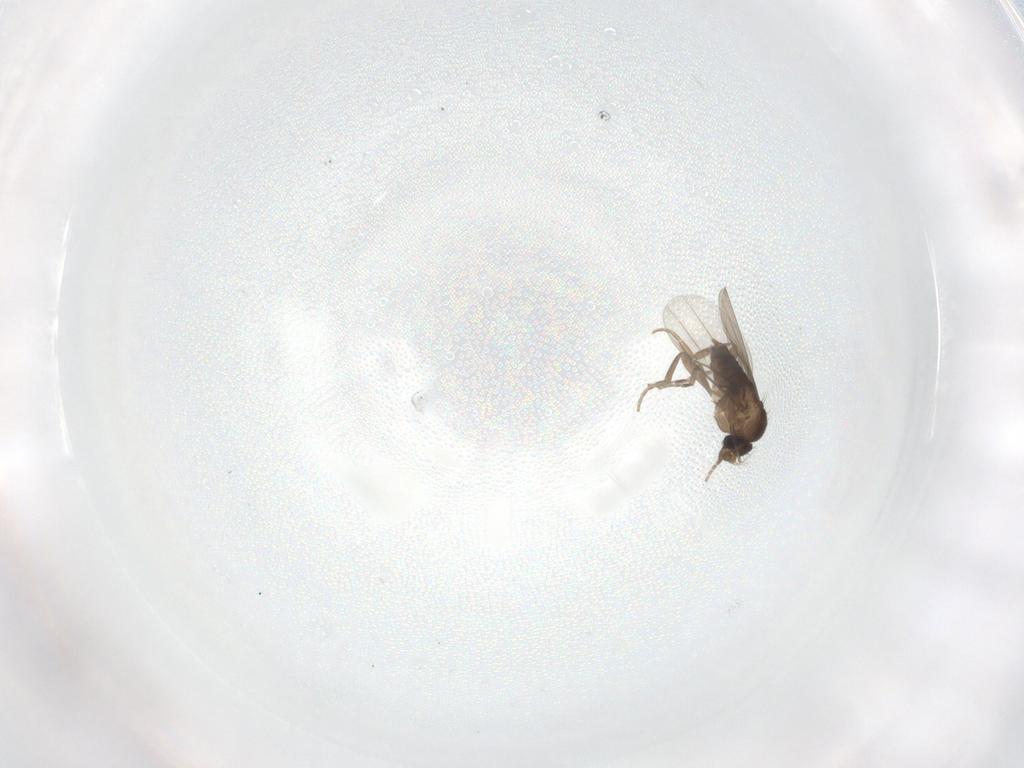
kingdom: Animalia
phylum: Arthropoda
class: Insecta
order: Diptera
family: Phoridae
